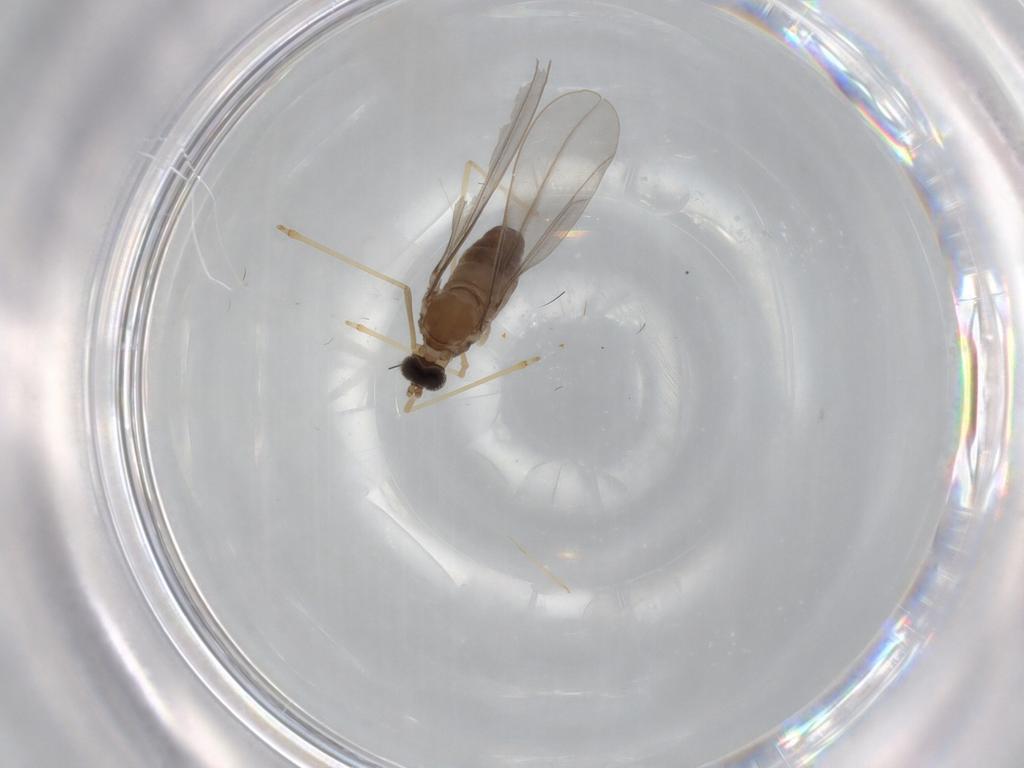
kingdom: Animalia
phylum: Arthropoda
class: Insecta
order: Diptera
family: Cecidomyiidae
